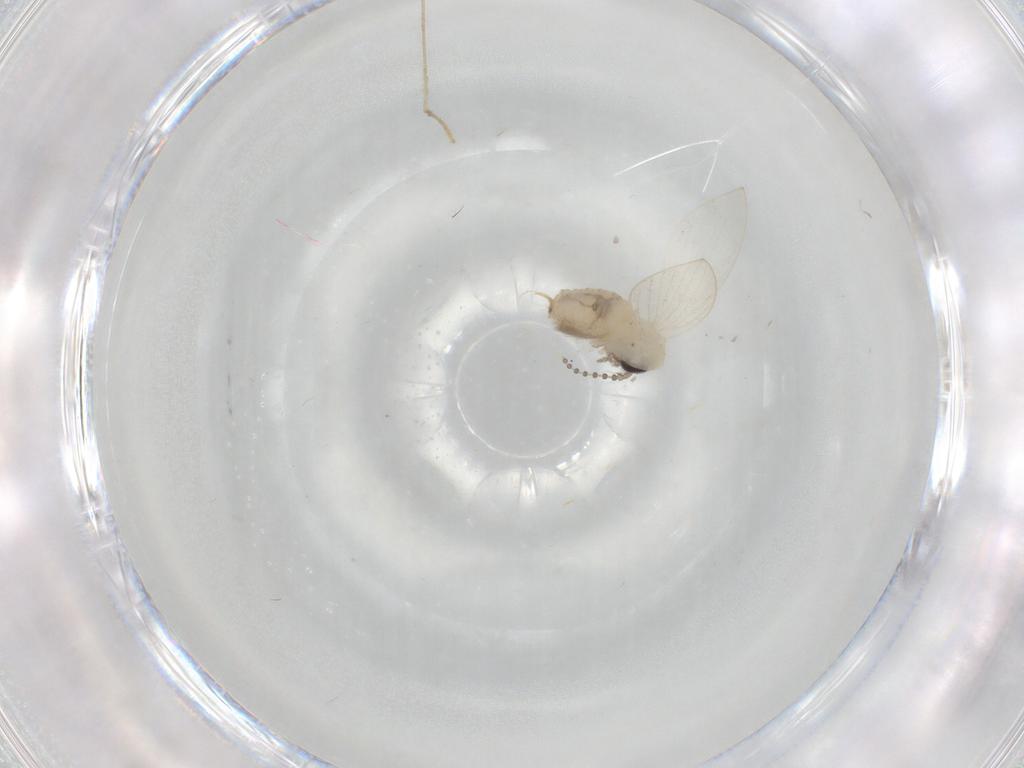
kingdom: Animalia
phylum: Arthropoda
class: Insecta
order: Diptera
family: Psychodidae
